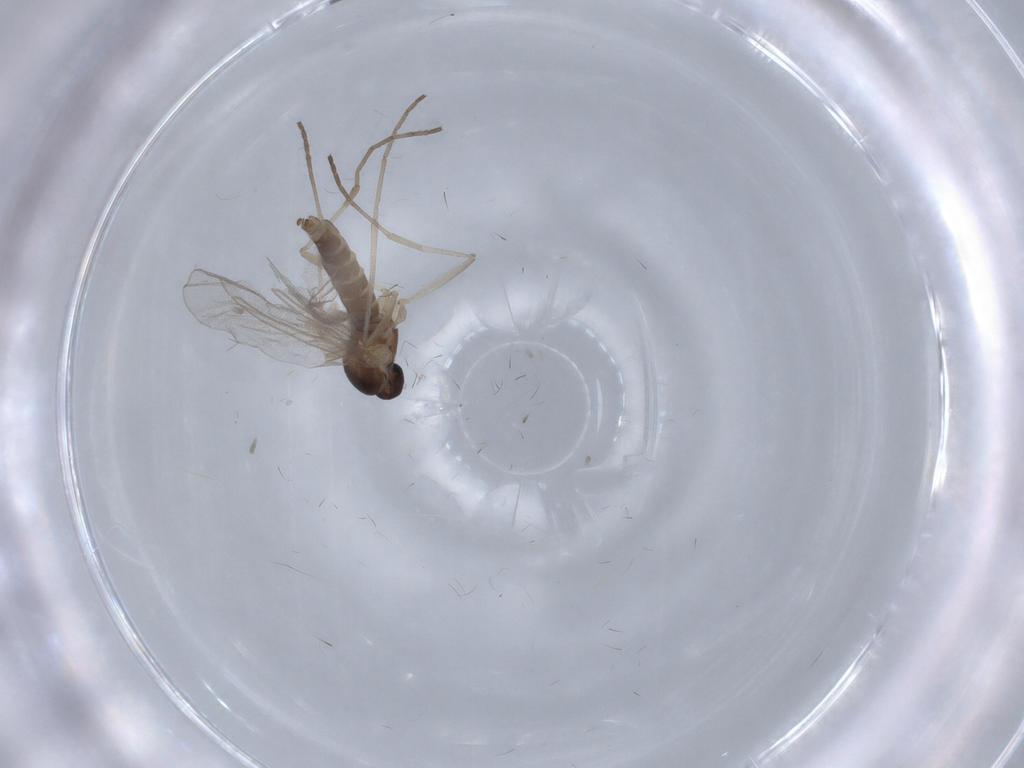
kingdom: Animalia
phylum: Arthropoda
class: Insecta
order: Diptera
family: Cecidomyiidae
